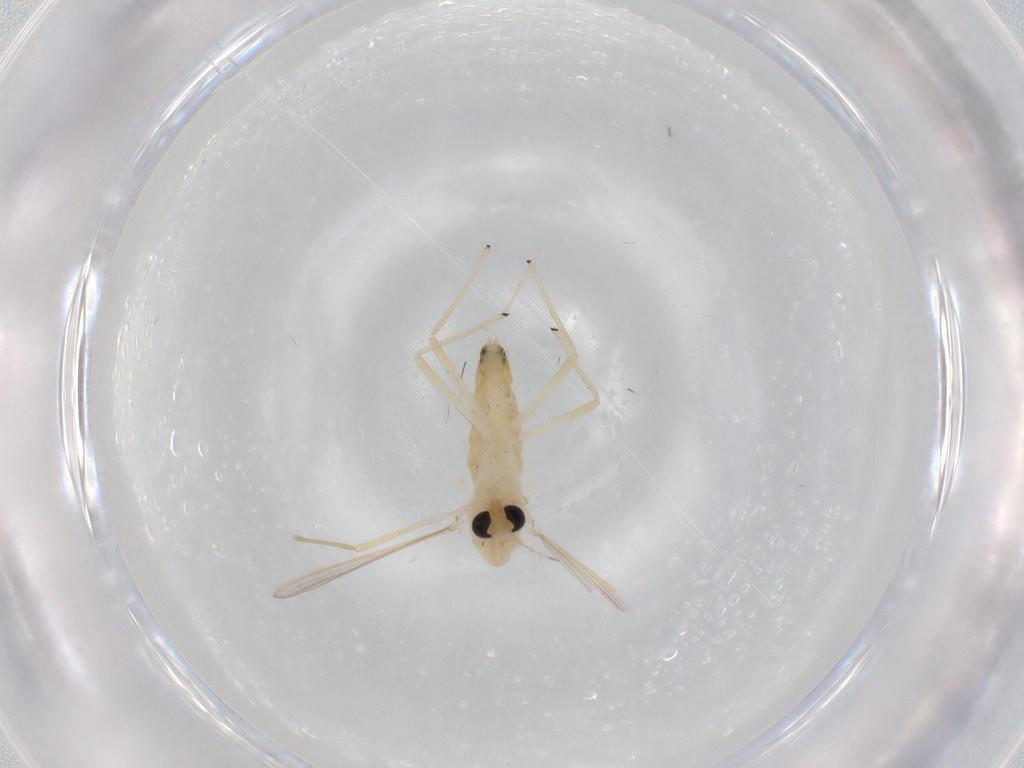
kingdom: Animalia
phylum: Arthropoda
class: Insecta
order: Diptera
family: Chironomidae
